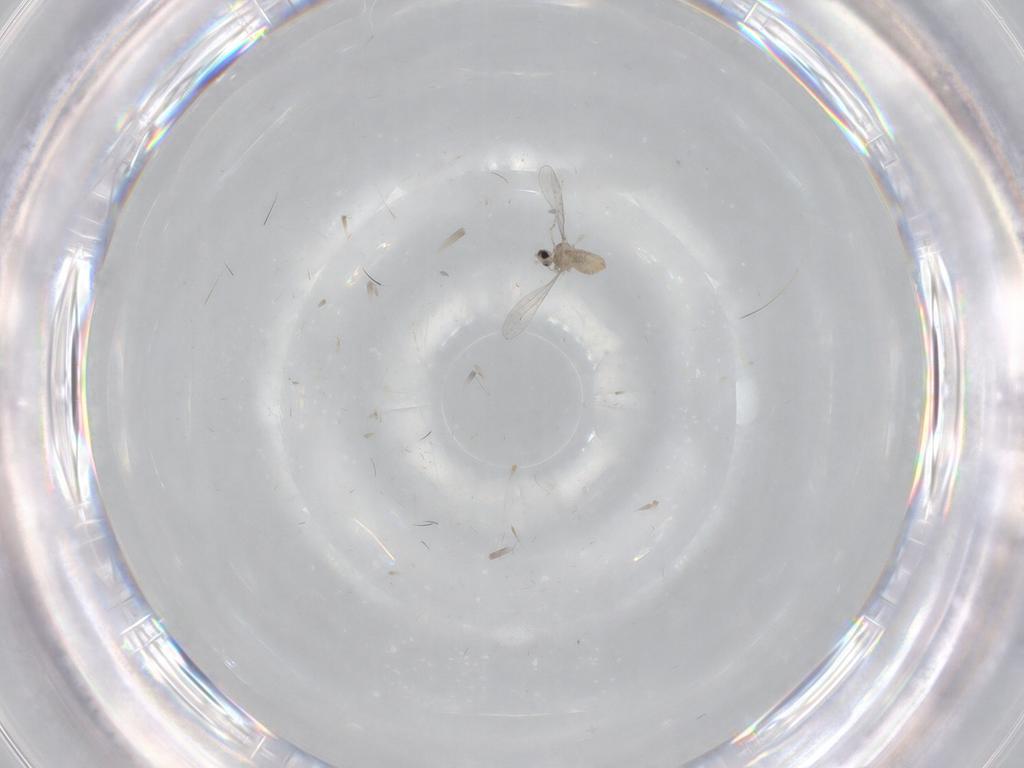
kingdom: Animalia
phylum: Arthropoda
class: Insecta
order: Diptera
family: Cecidomyiidae
